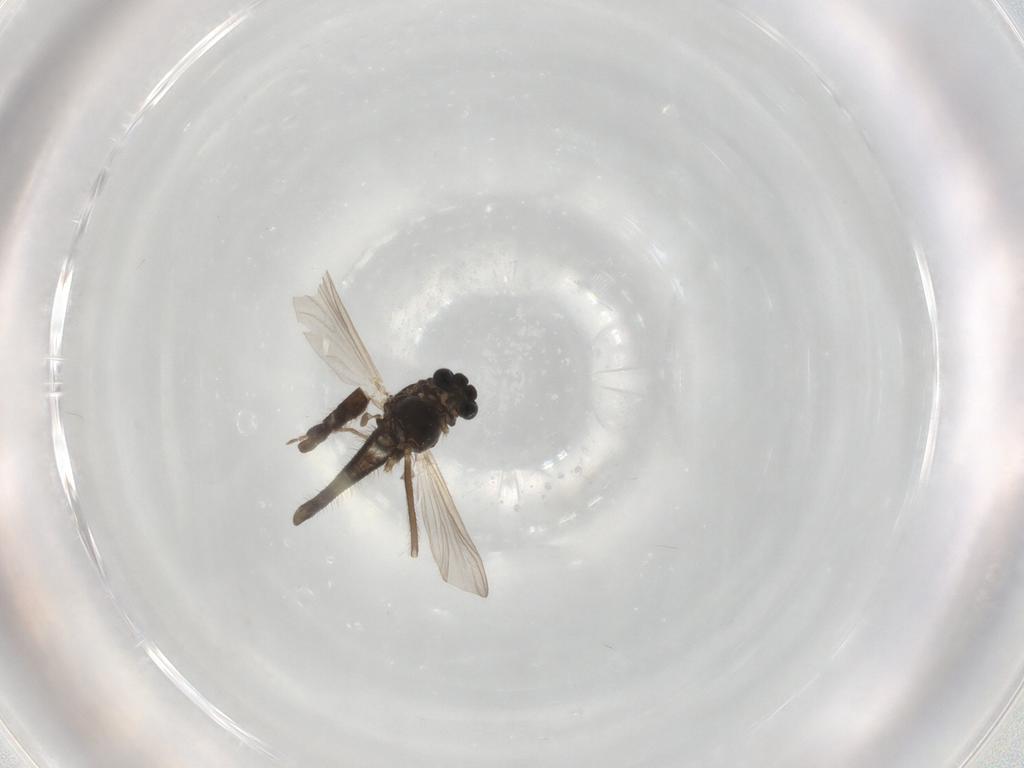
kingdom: Animalia
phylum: Arthropoda
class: Insecta
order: Diptera
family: Chironomidae
